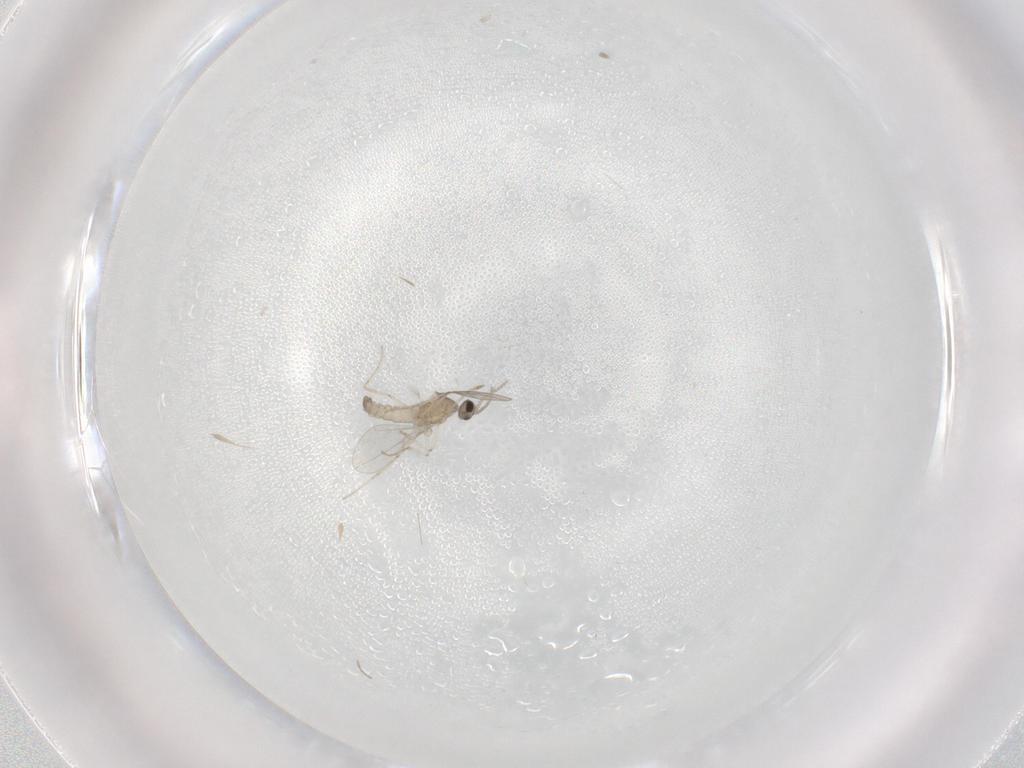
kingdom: Animalia
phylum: Arthropoda
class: Insecta
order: Diptera
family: Cecidomyiidae
